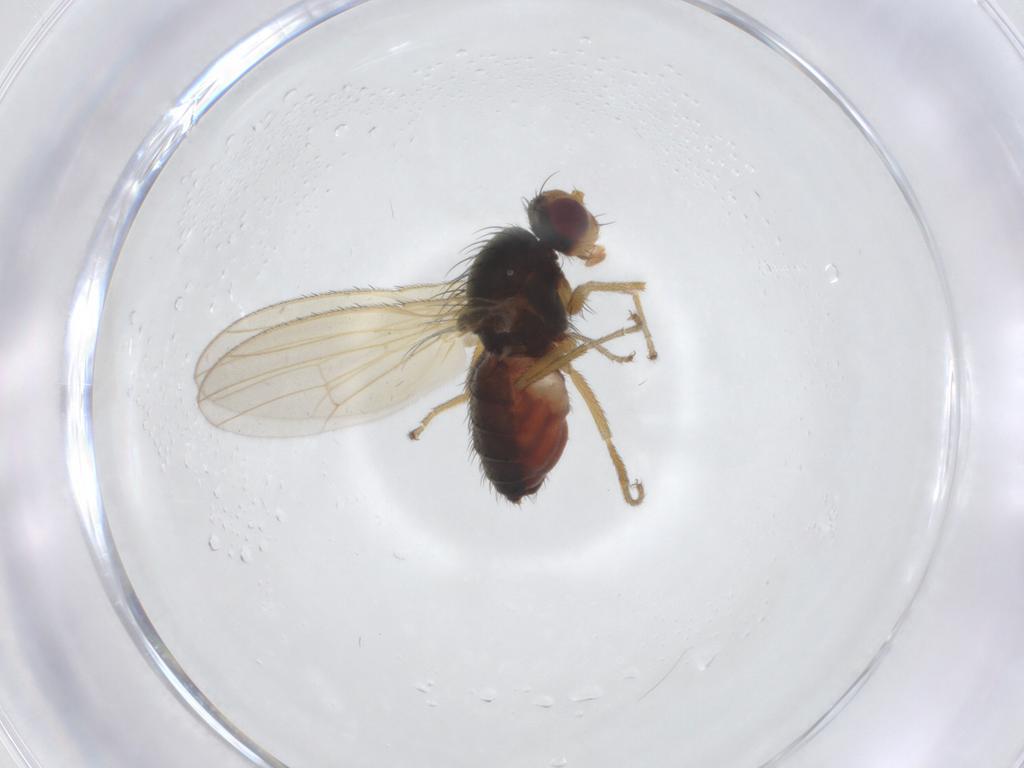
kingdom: Animalia
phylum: Arthropoda
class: Insecta
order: Diptera
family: Heleomyzidae
